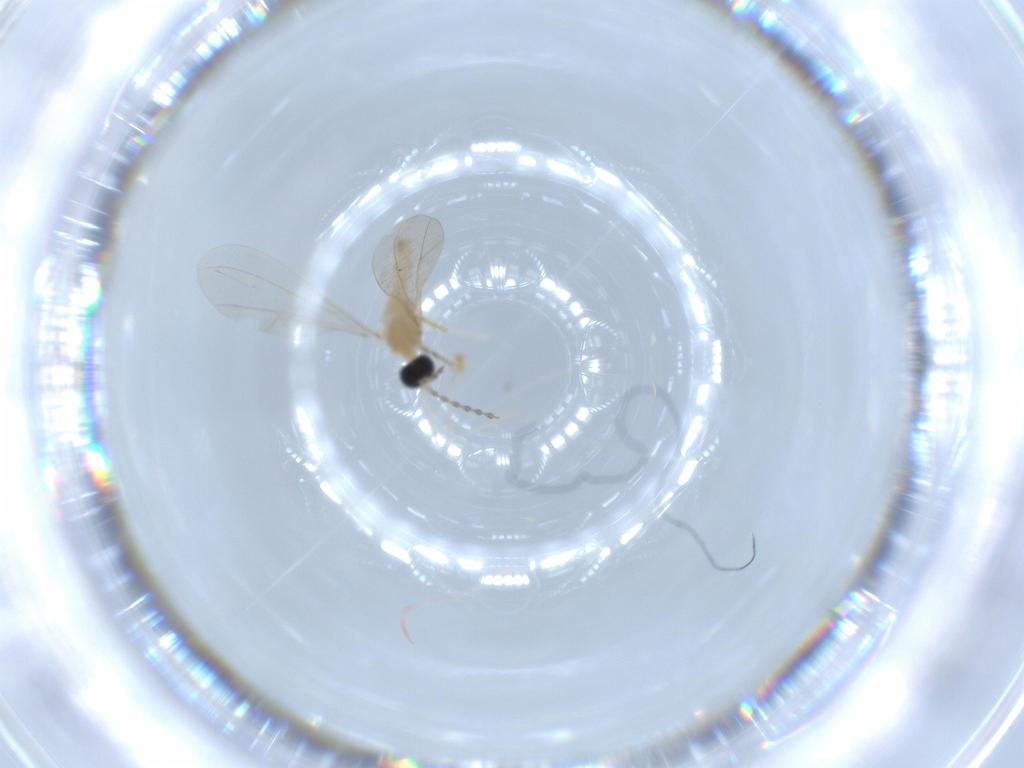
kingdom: Animalia
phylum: Arthropoda
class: Insecta
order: Diptera
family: Cecidomyiidae
